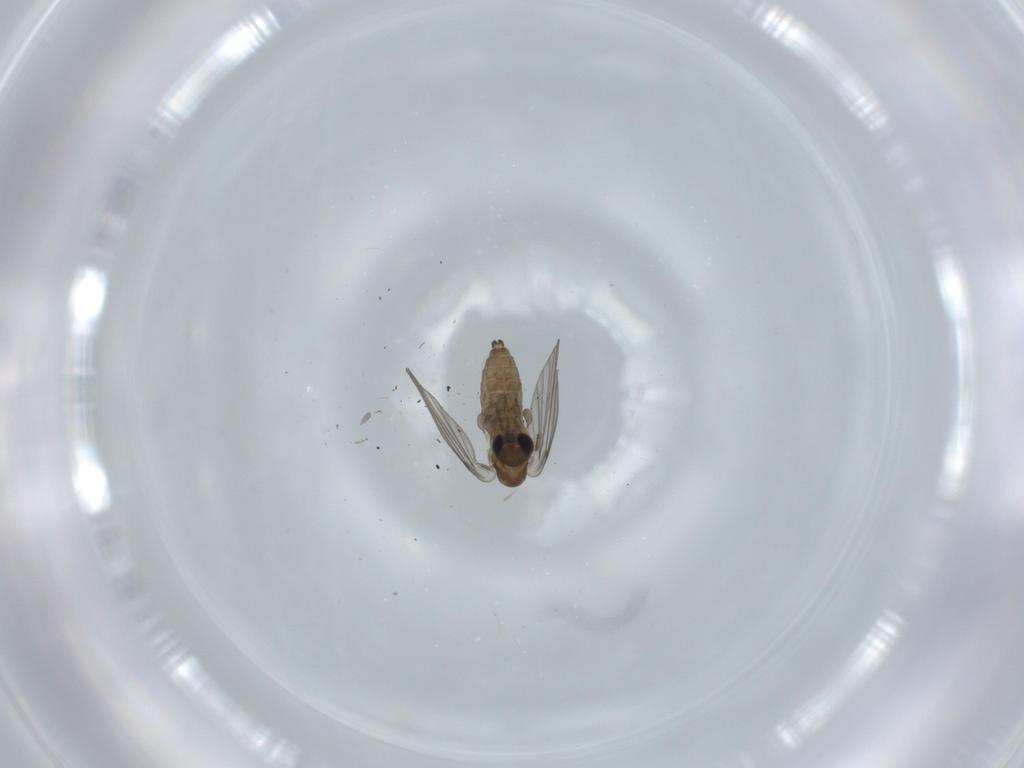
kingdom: Animalia
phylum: Arthropoda
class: Insecta
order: Diptera
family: Psychodidae
